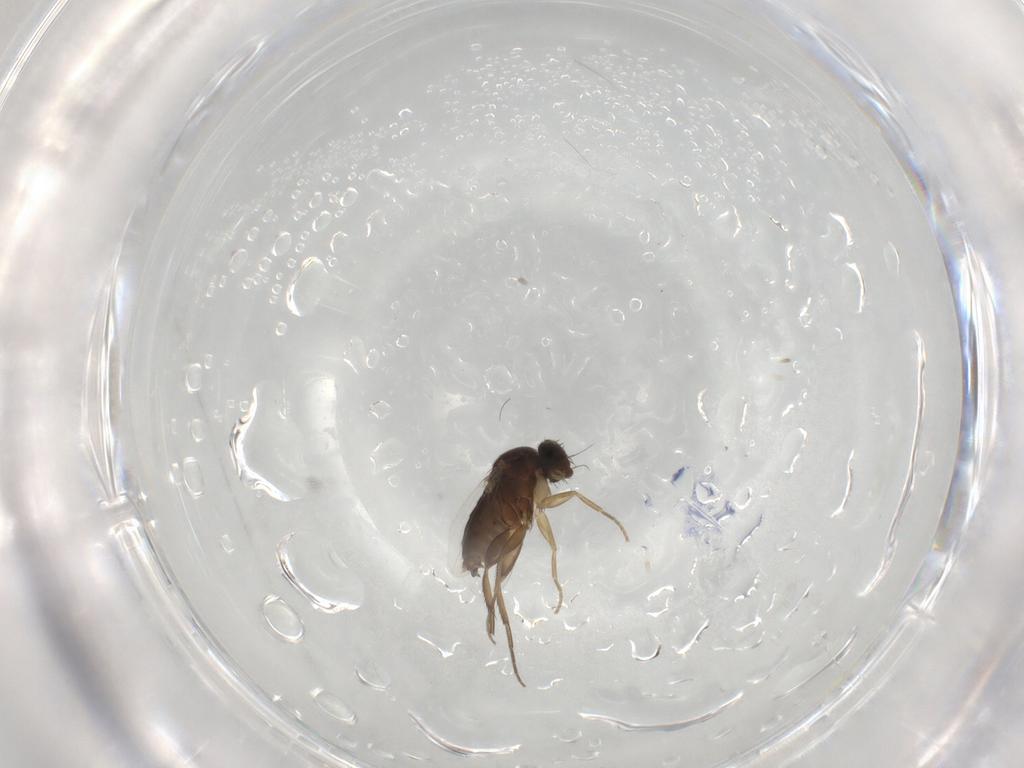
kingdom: Animalia
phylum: Arthropoda
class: Insecta
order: Diptera
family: Phoridae
